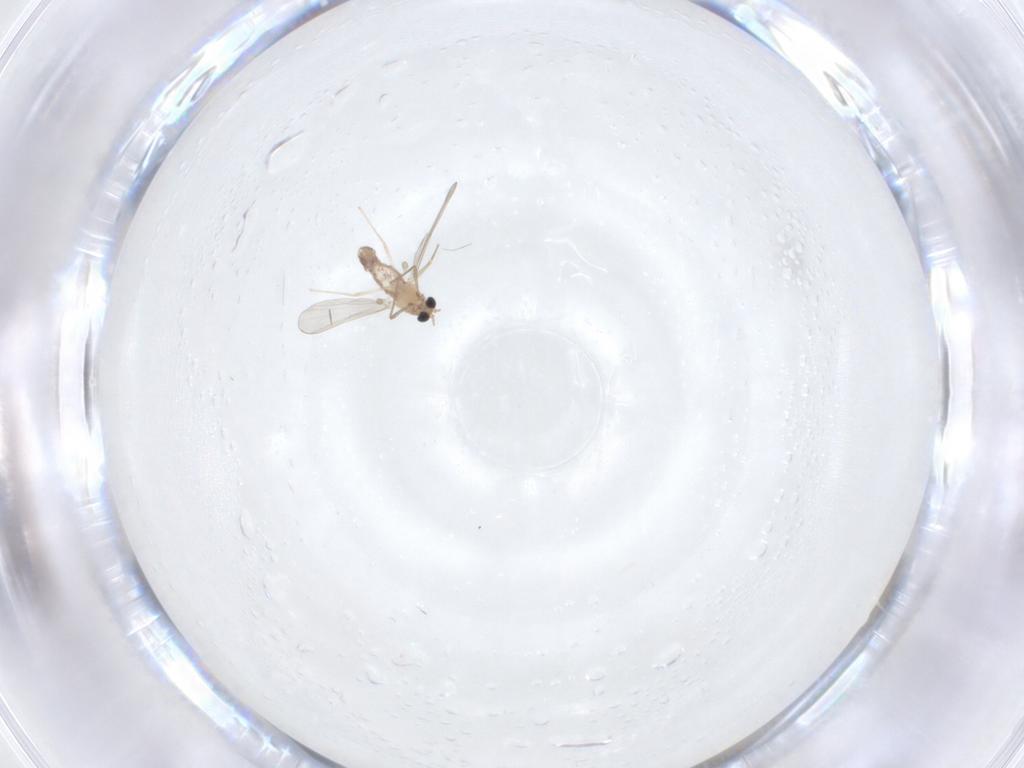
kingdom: Animalia
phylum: Arthropoda
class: Insecta
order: Diptera
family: Chironomidae
